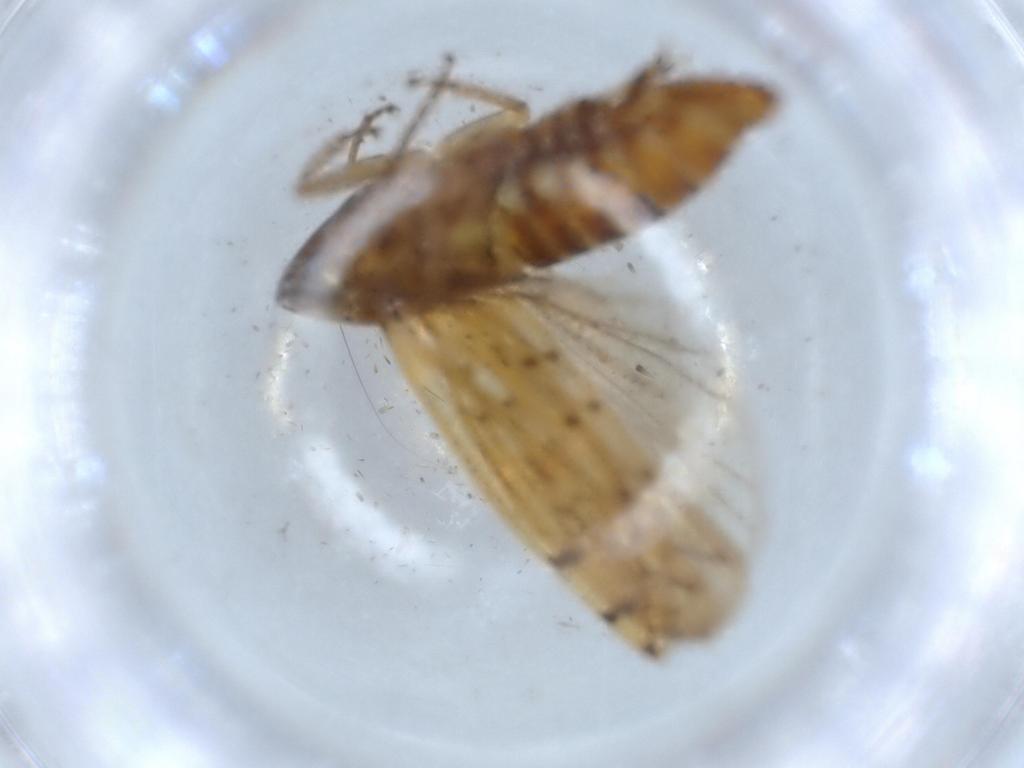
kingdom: Animalia
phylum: Arthropoda
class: Insecta
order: Hemiptera
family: Cicadellidae
